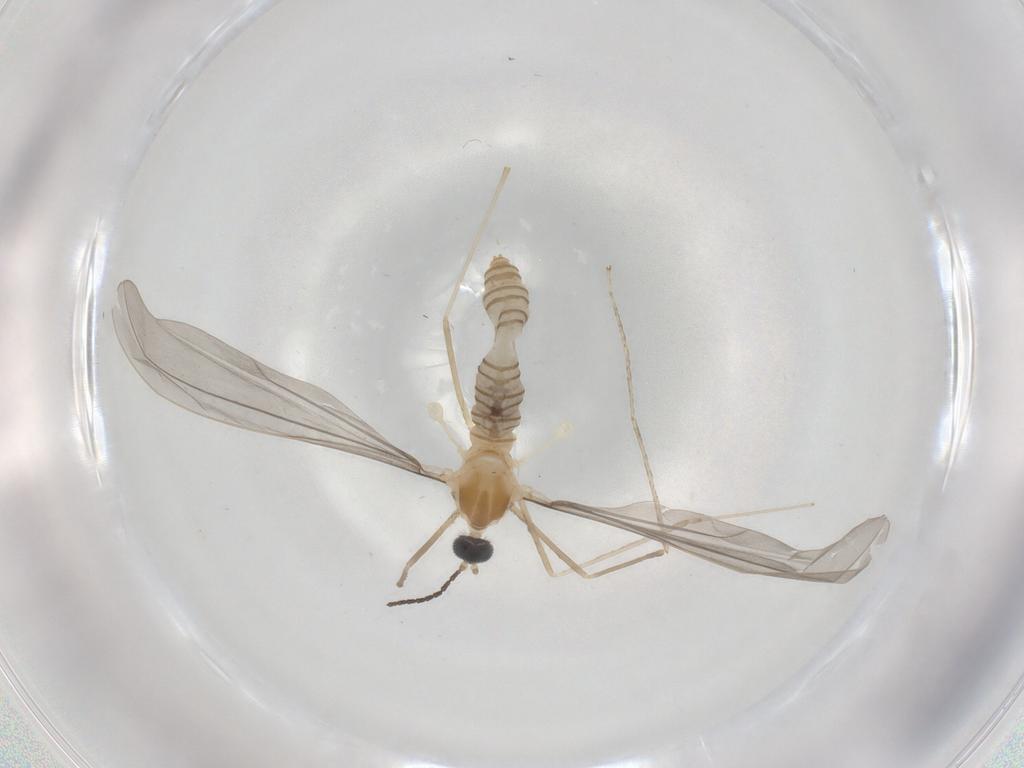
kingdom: Animalia
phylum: Arthropoda
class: Insecta
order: Diptera
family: Cecidomyiidae
